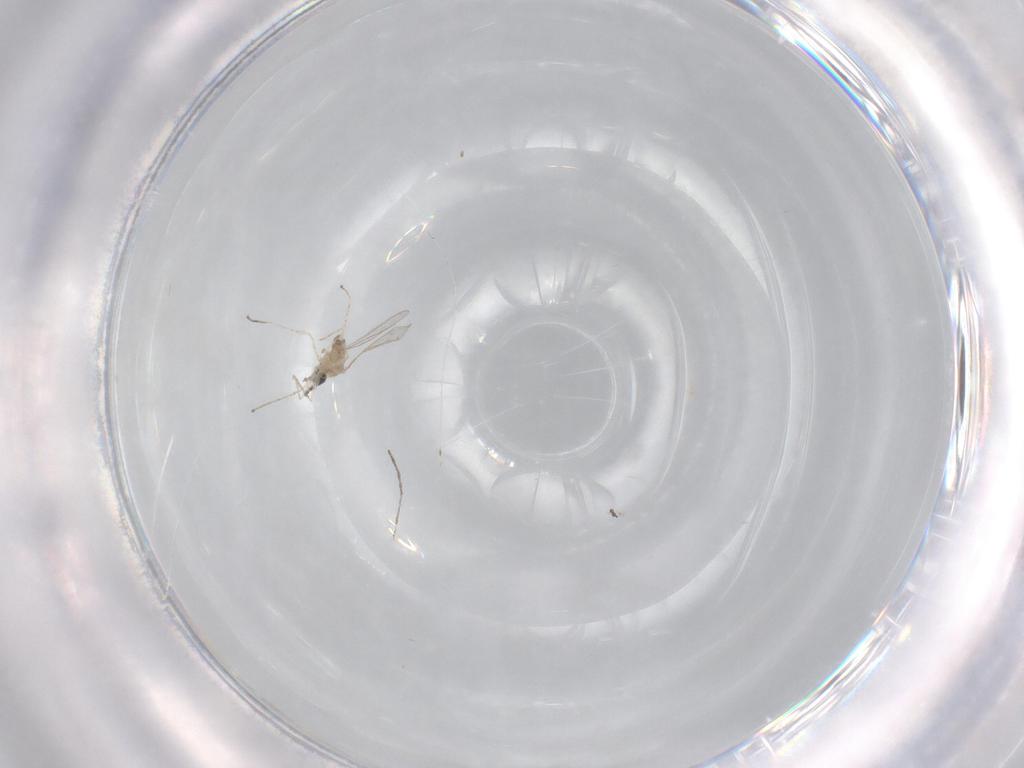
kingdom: Animalia
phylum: Arthropoda
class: Insecta
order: Diptera
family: Cecidomyiidae
